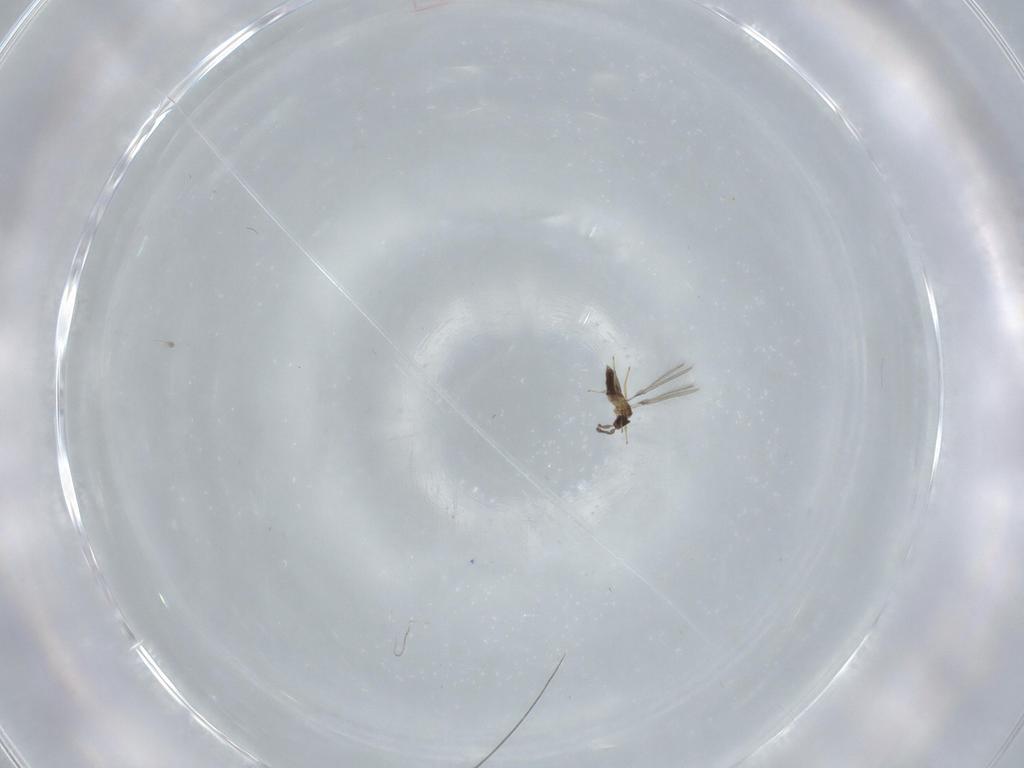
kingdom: Animalia
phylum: Arthropoda
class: Insecta
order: Hymenoptera
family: Mymaridae
